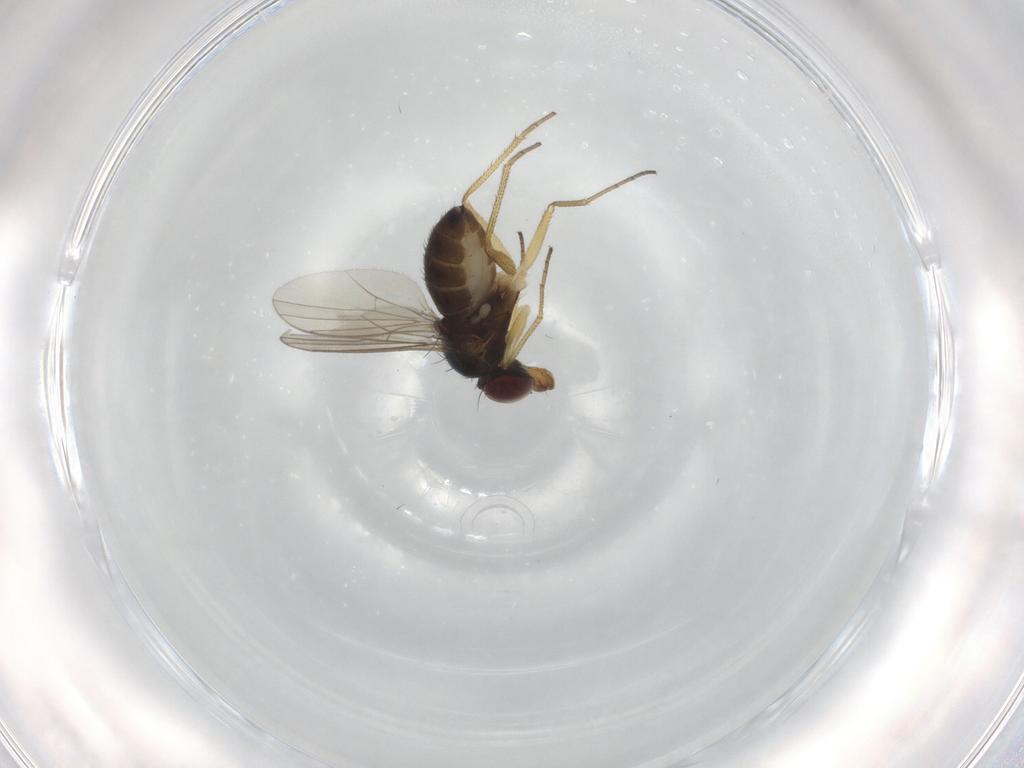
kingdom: Animalia
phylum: Arthropoda
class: Insecta
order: Diptera
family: Dolichopodidae
